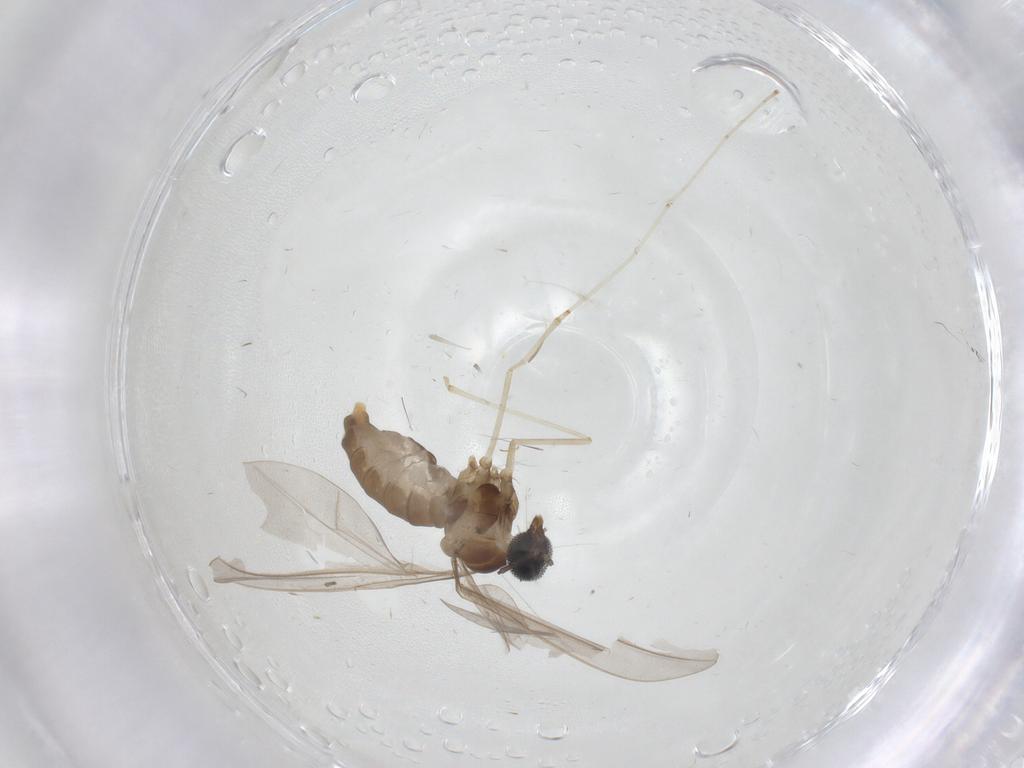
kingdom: Animalia
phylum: Arthropoda
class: Insecta
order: Diptera
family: Cecidomyiidae
